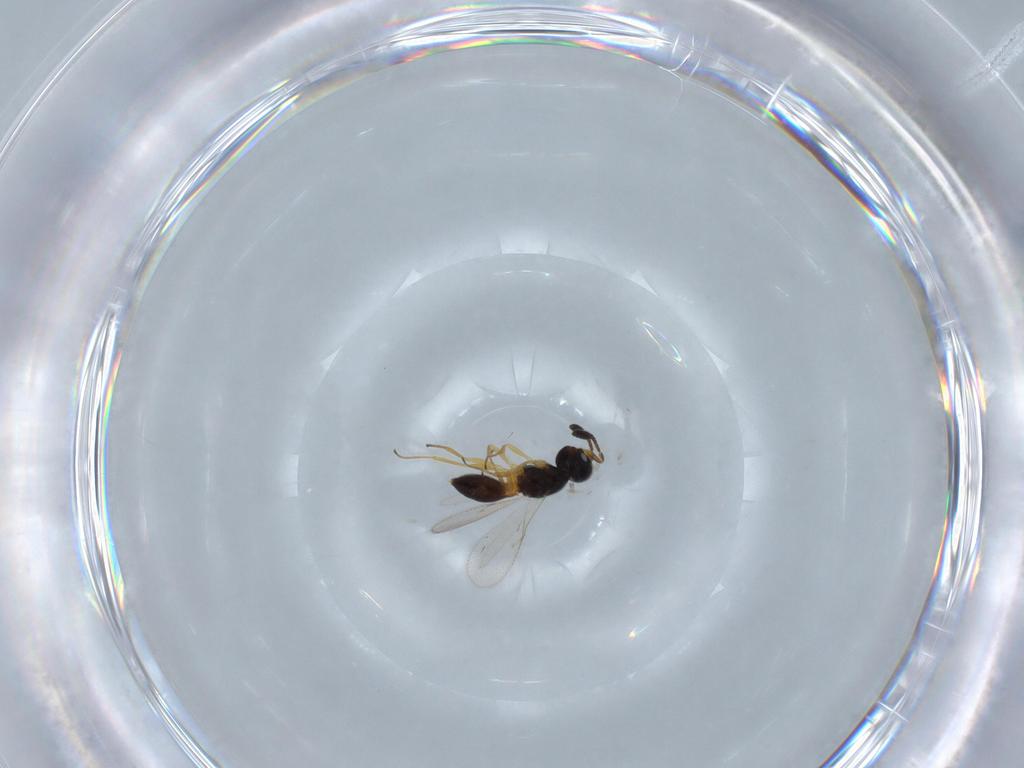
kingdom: Animalia
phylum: Arthropoda
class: Insecta
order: Hymenoptera
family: Scelionidae
